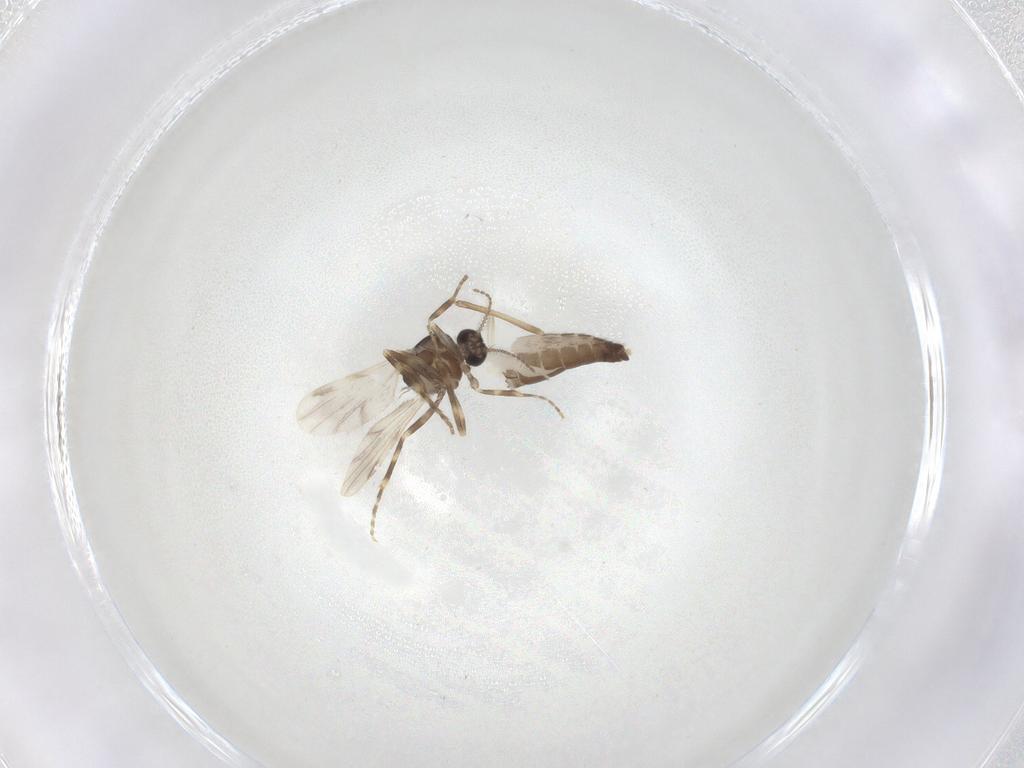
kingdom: Animalia
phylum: Arthropoda
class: Insecta
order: Diptera
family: Ceratopogonidae
